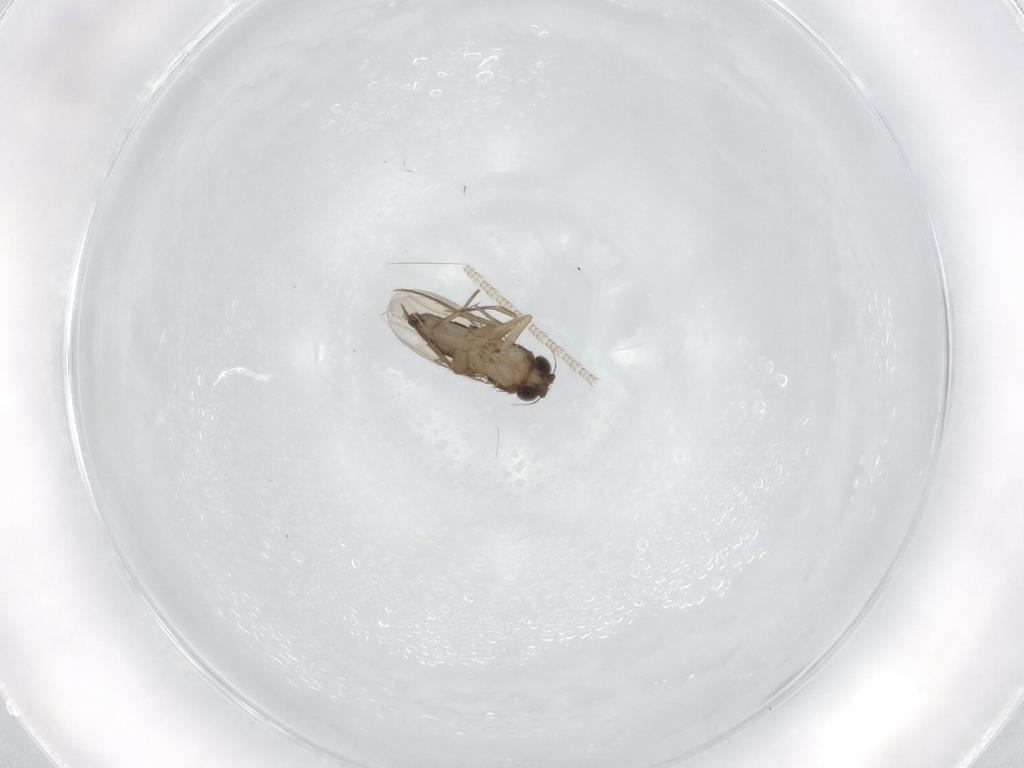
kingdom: Animalia
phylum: Arthropoda
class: Insecta
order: Diptera
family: Phoridae
